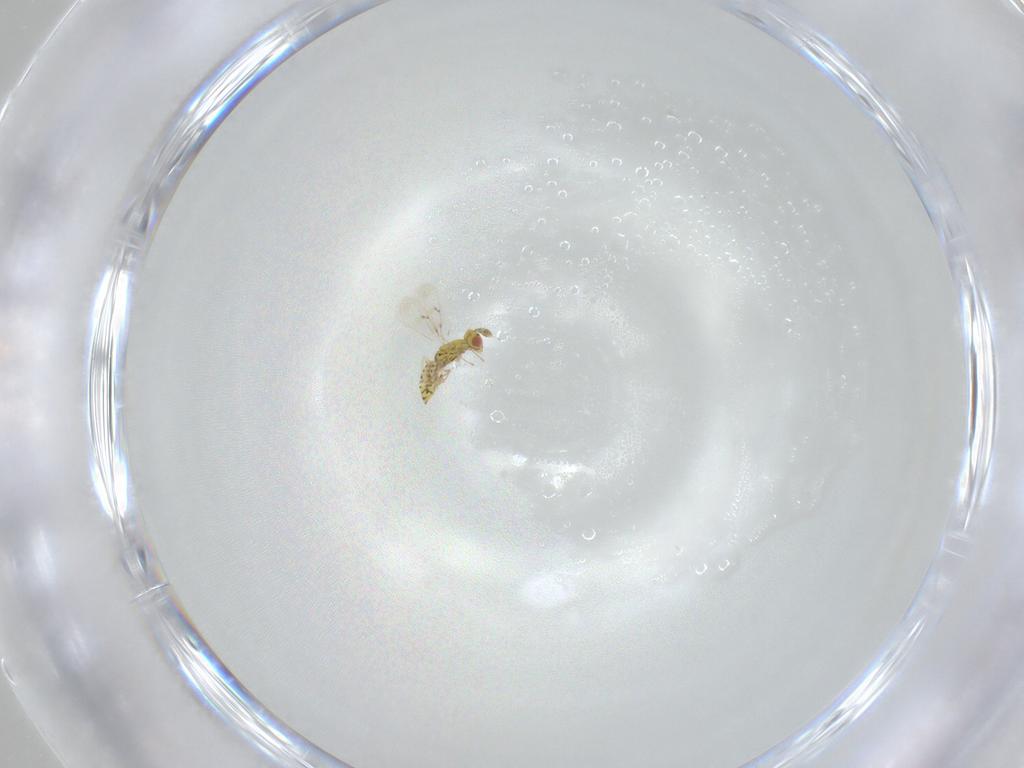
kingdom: Animalia
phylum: Arthropoda
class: Insecta
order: Hymenoptera
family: Eulophidae
